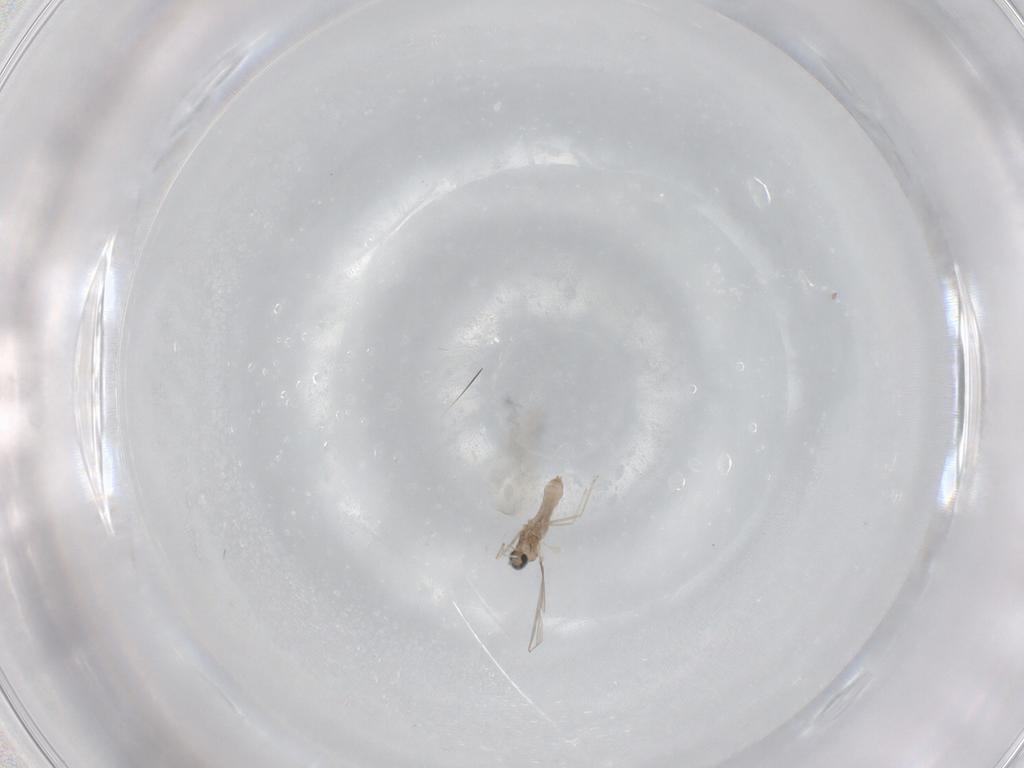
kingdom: Animalia
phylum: Arthropoda
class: Insecta
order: Diptera
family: Cecidomyiidae
